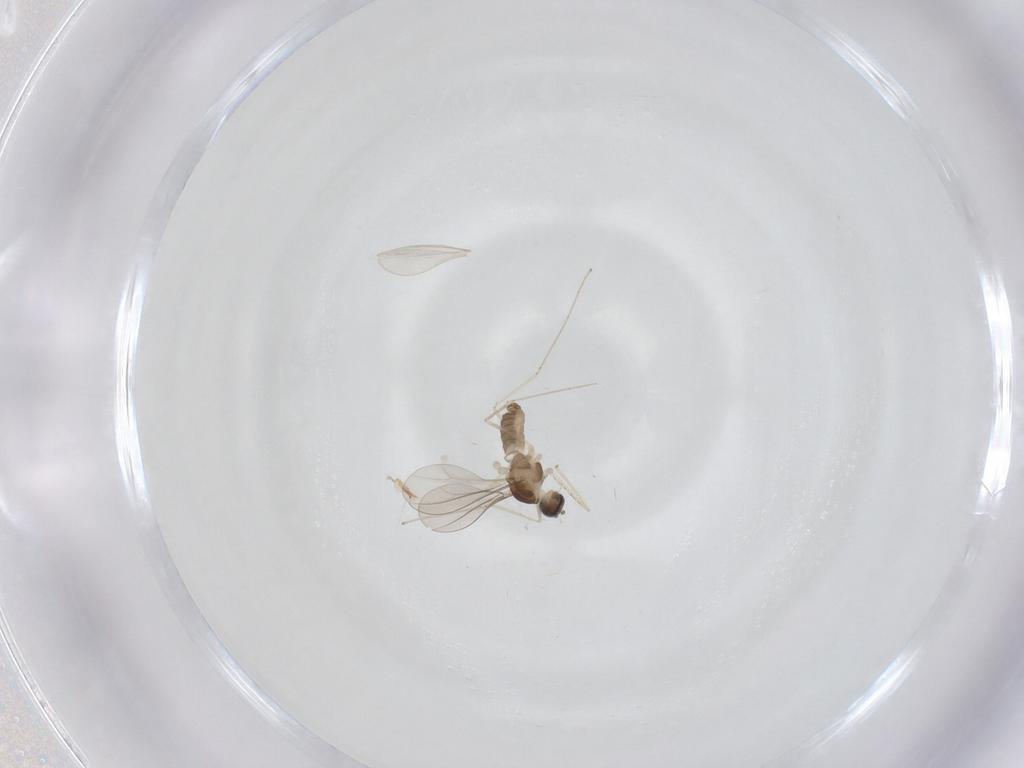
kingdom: Animalia
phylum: Arthropoda
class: Insecta
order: Diptera
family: Cecidomyiidae
